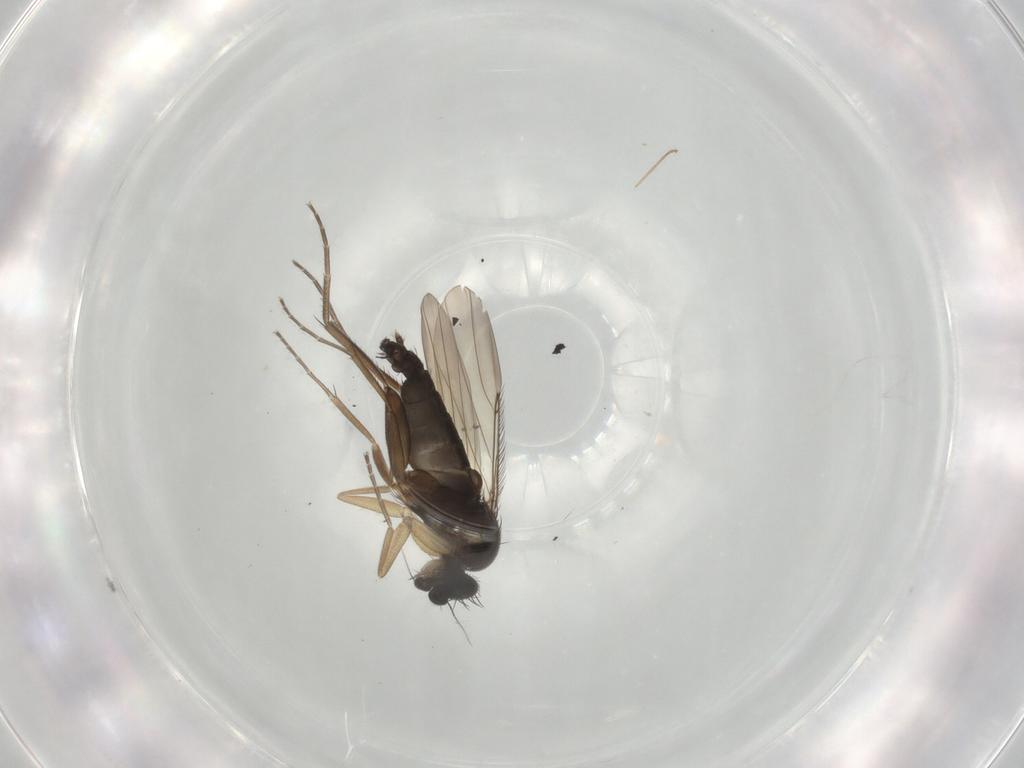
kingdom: Animalia
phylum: Arthropoda
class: Insecta
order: Diptera
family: Phoridae
